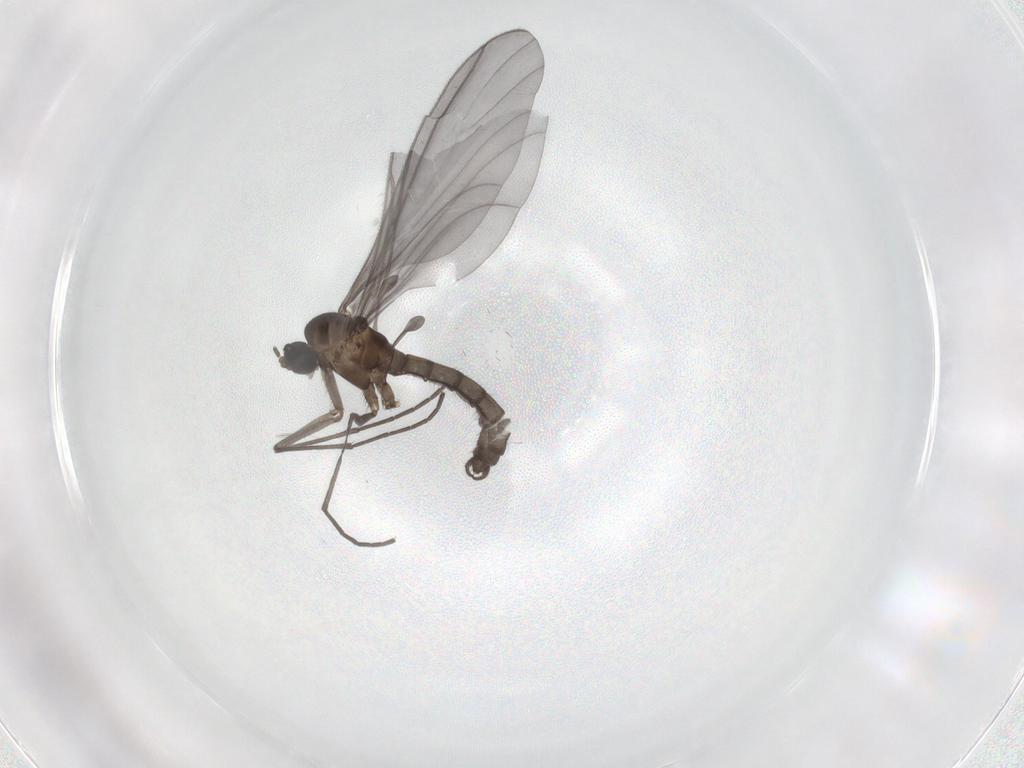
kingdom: Animalia
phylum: Arthropoda
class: Insecta
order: Diptera
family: Sciaridae
